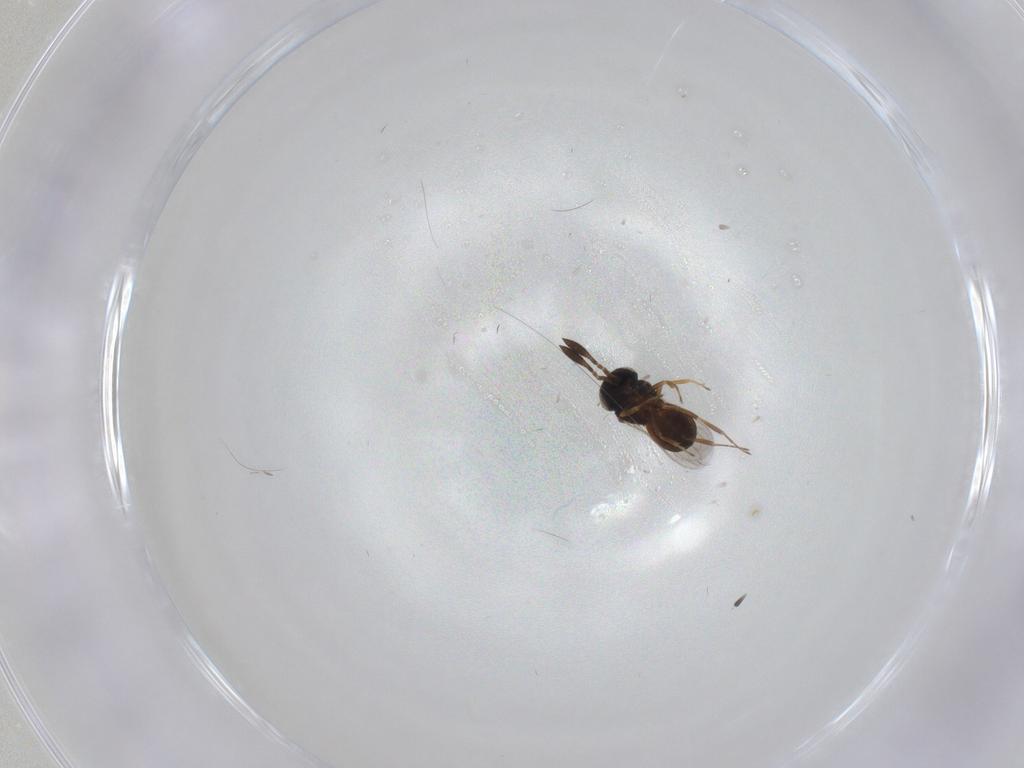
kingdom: Animalia
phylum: Arthropoda
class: Insecta
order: Hymenoptera
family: Scelionidae
